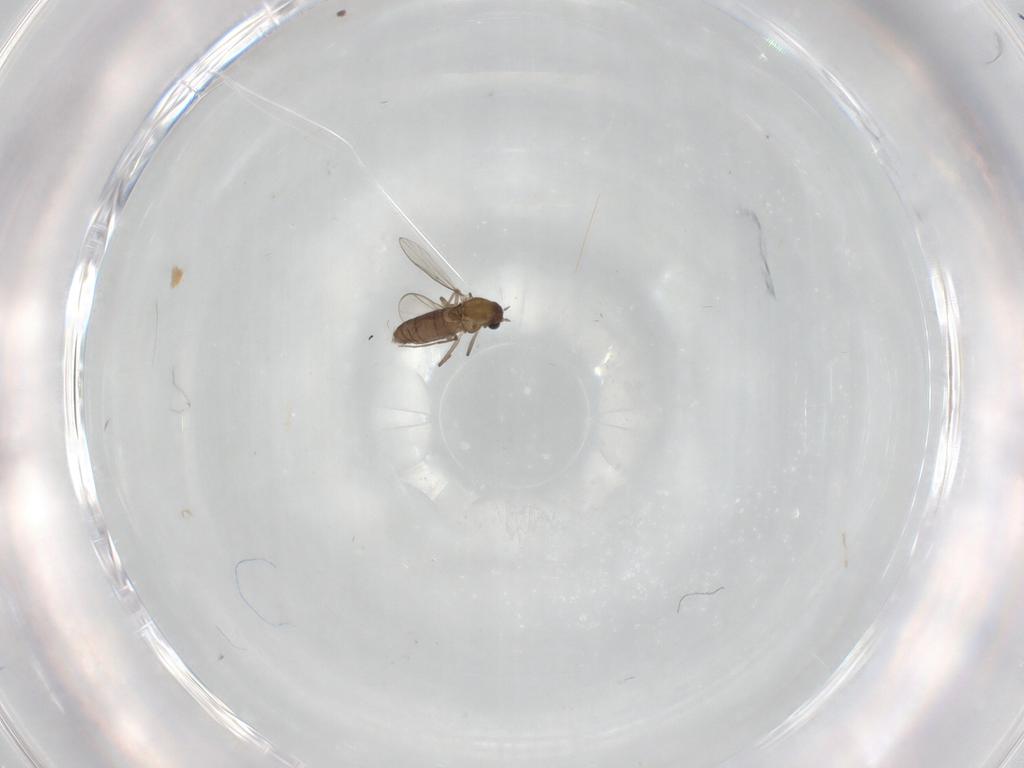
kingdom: Animalia
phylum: Arthropoda
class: Insecta
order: Diptera
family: Chironomidae
